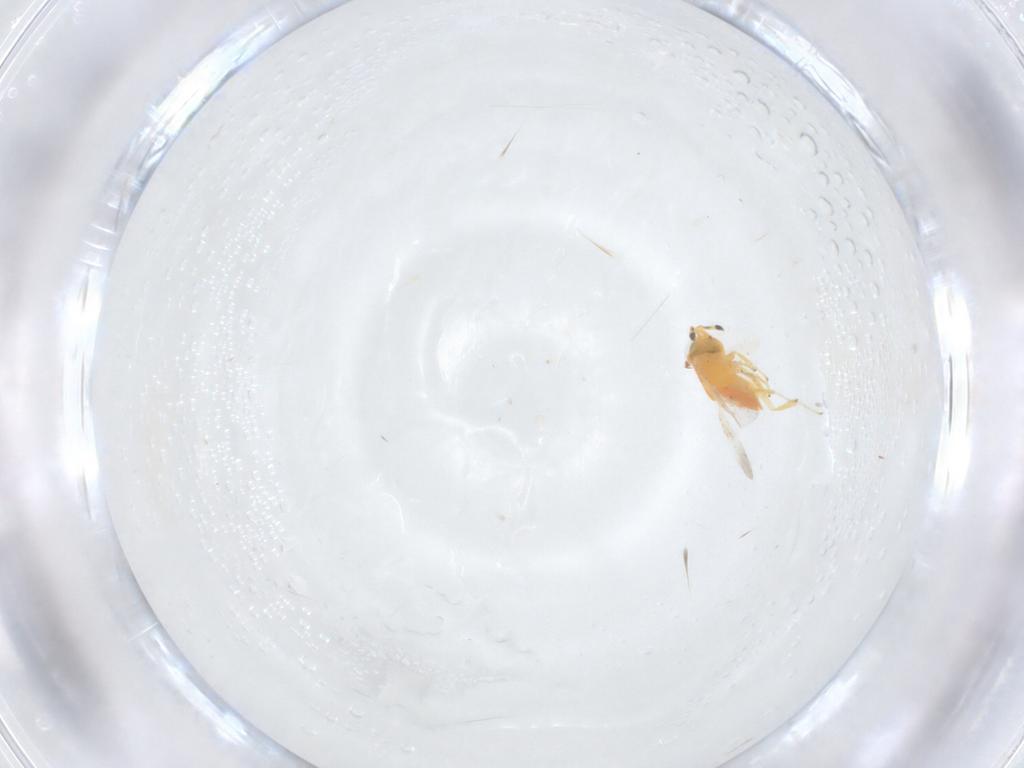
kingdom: Animalia
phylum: Arthropoda
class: Insecta
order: Hymenoptera
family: Encyrtidae
